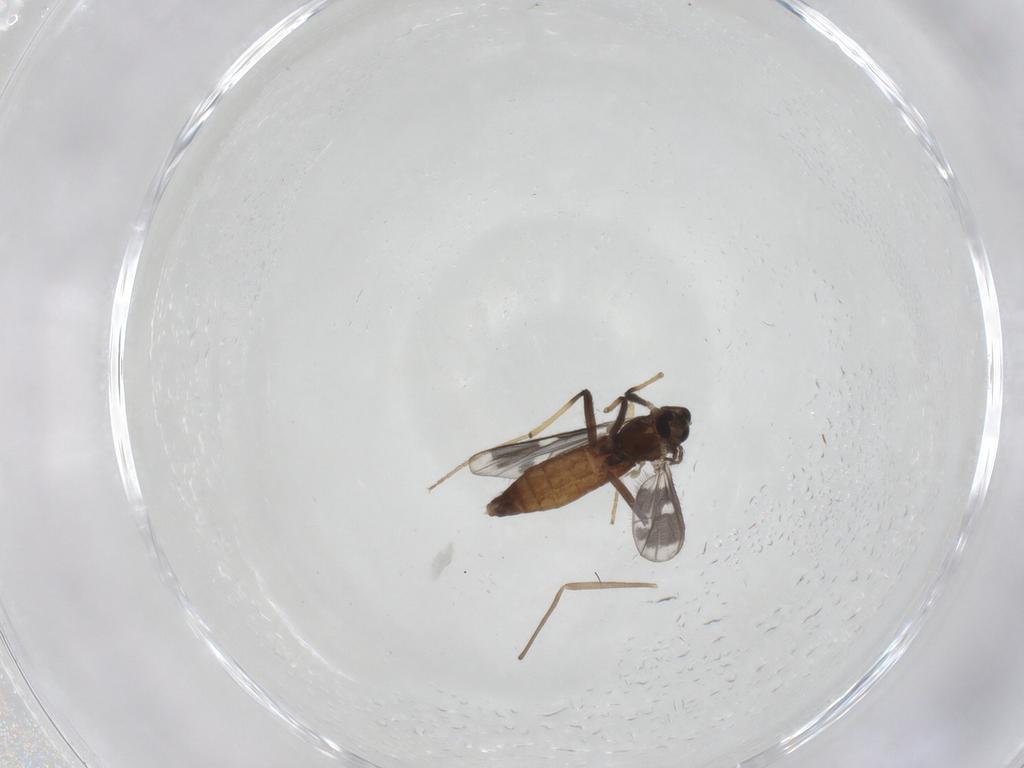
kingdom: Animalia
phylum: Arthropoda
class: Insecta
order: Diptera
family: Chironomidae
